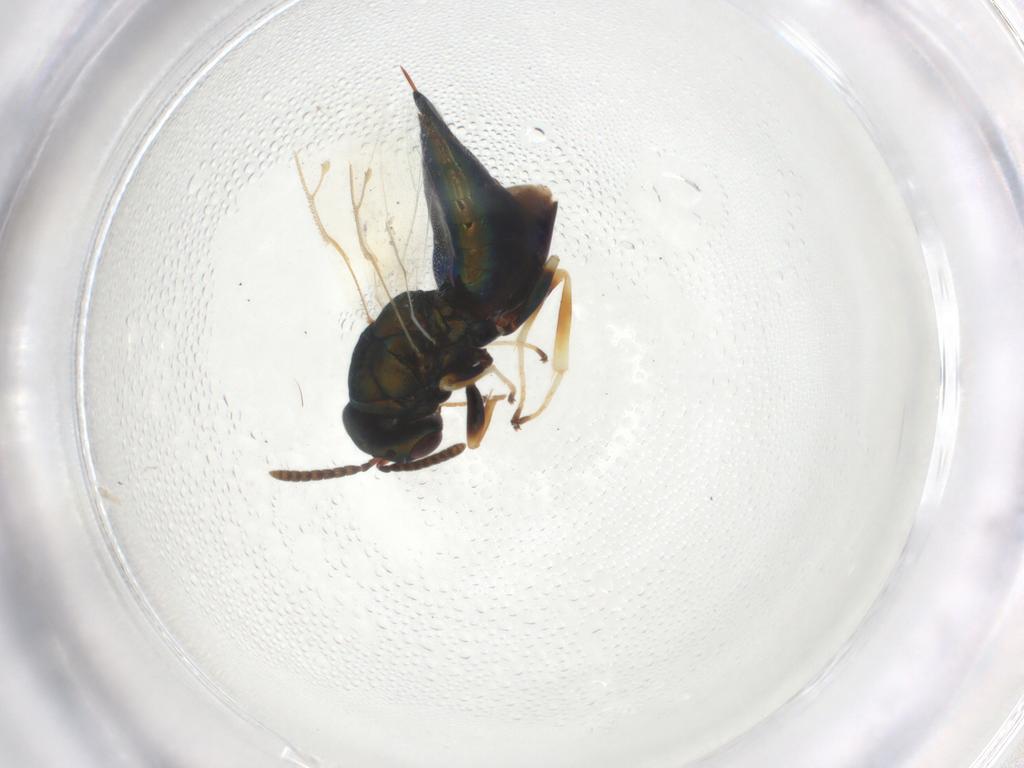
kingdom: Animalia
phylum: Arthropoda
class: Insecta
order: Hymenoptera
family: Pteromalidae
